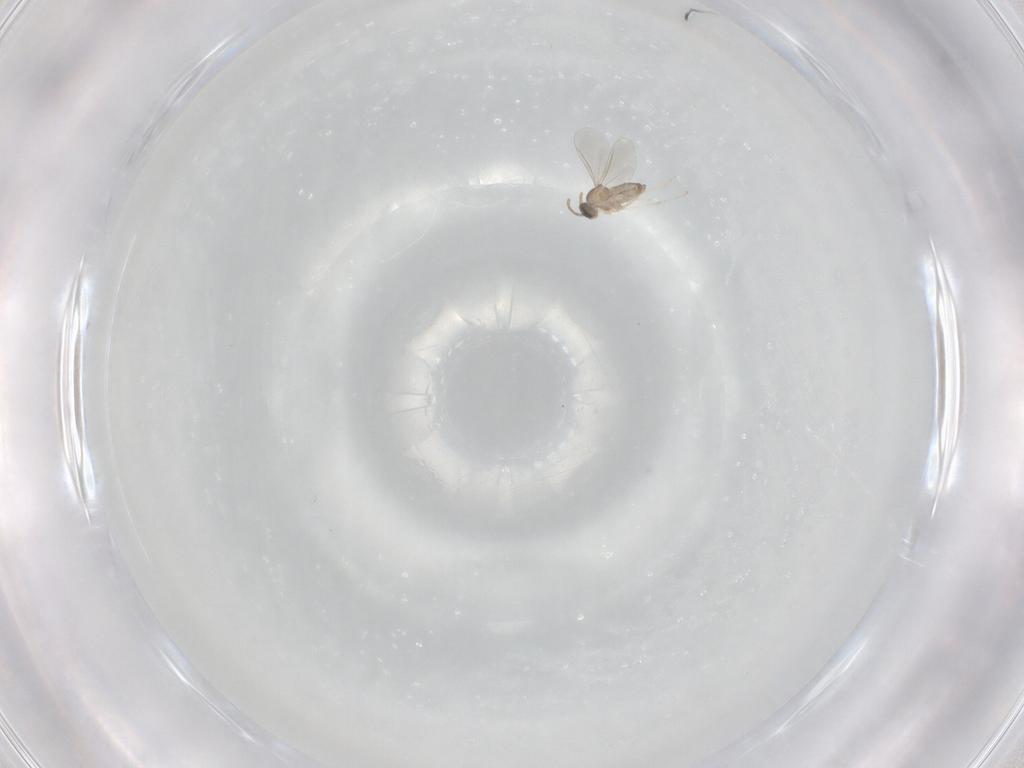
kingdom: Animalia
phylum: Arthropoda
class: Insecta
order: Diptera
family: Cecidomyiidae
